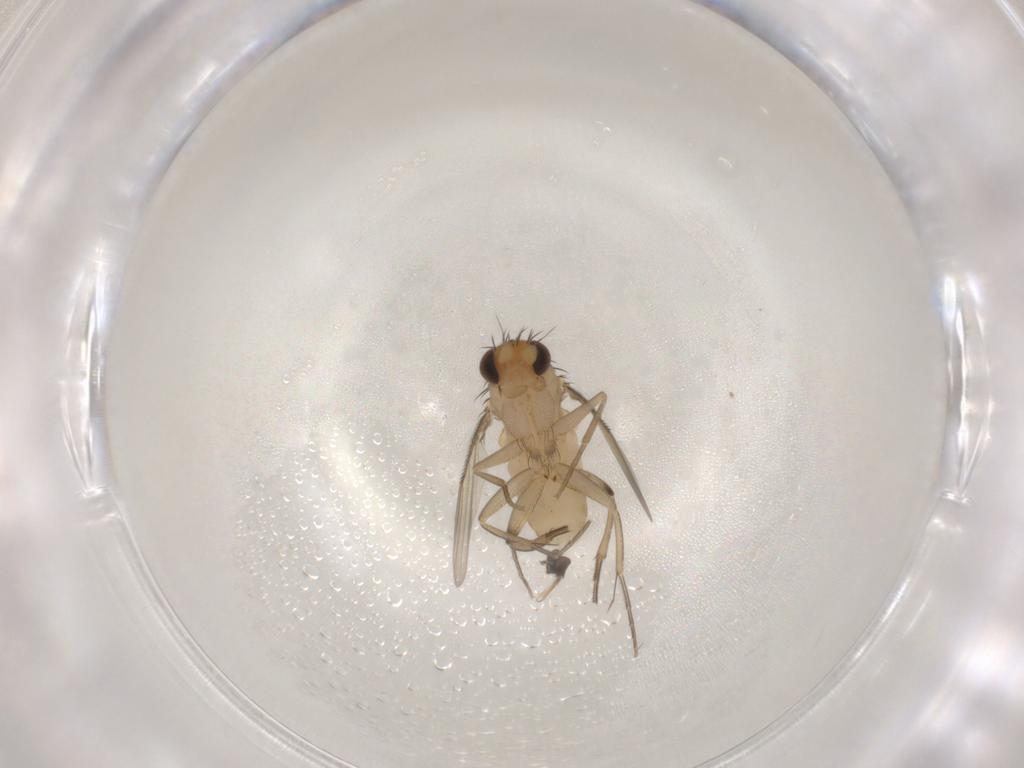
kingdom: Animalia
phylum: Arthropoda
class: Insecta
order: Diptera
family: Phoridae
